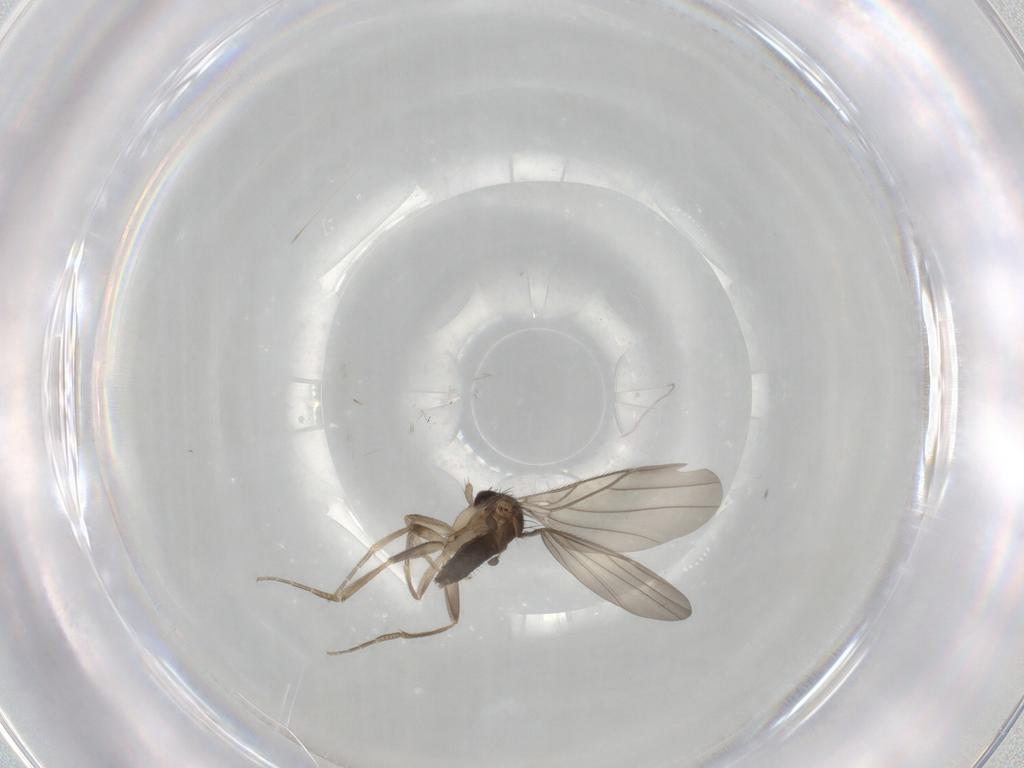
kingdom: Animalia
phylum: Arthropoda
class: Insecta
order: Diptera
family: Phoridae
